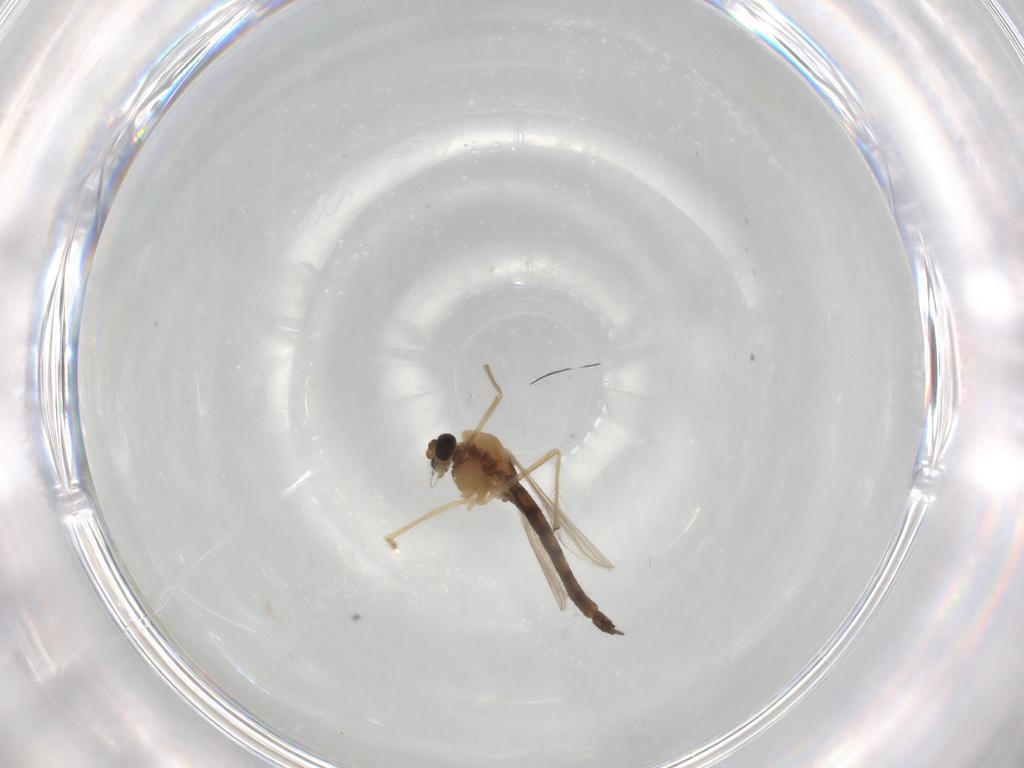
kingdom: Animalia
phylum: Arthropoda
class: Insecta
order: Diptera
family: Chironomidae
